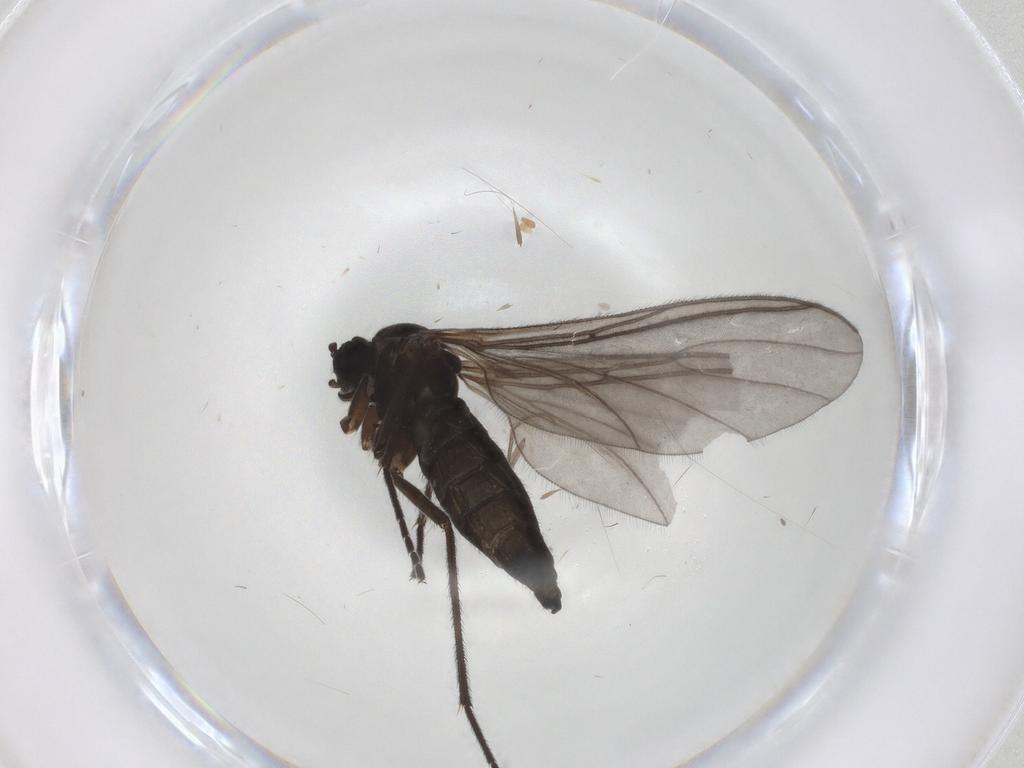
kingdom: Animalia
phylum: Arthropoda
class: Insecta
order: Diptera
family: Sciaridae
